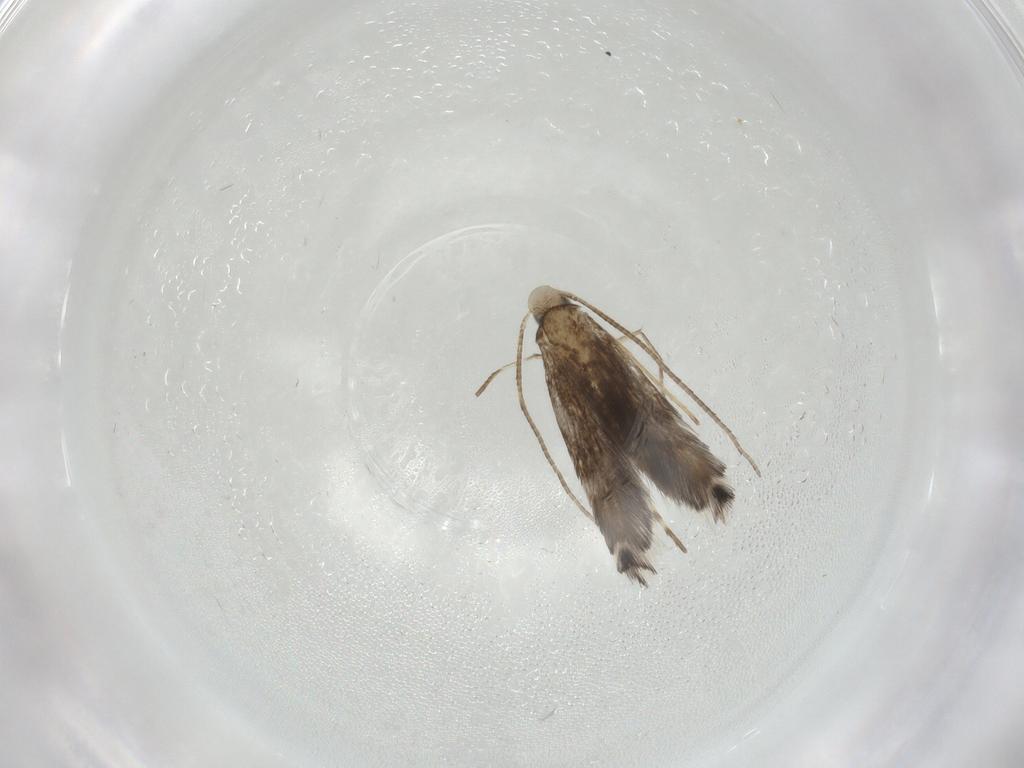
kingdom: Animalia
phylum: Arthropoda
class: Insecta
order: Lepidoptera
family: Nepticulidae
